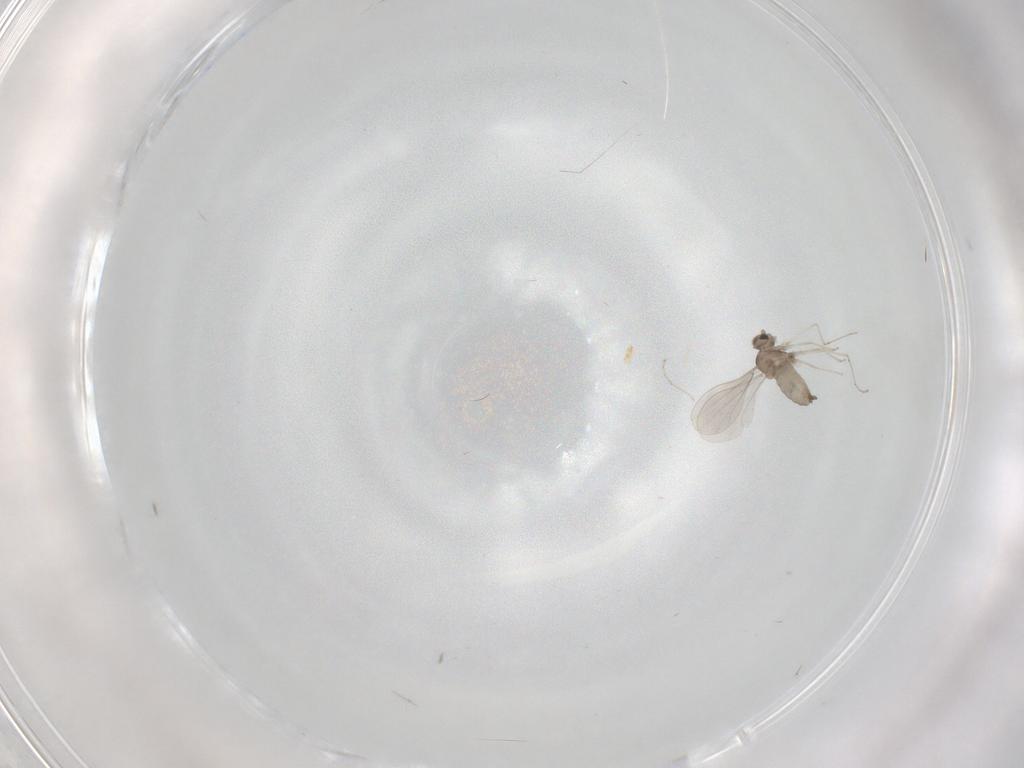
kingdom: Animalia
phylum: Arthropoda
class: Insecta
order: Diptera
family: Cecidomyiidae
